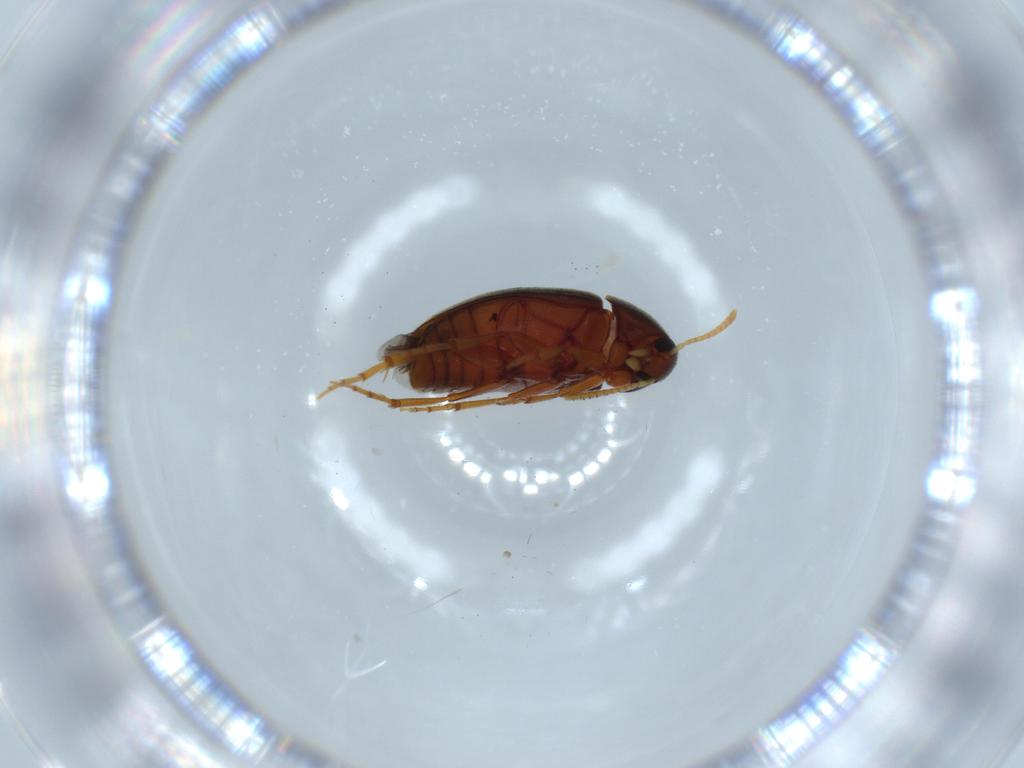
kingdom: Animalia
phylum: Arthropoda
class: Insecta
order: Coleoptera
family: Scraptiidae
